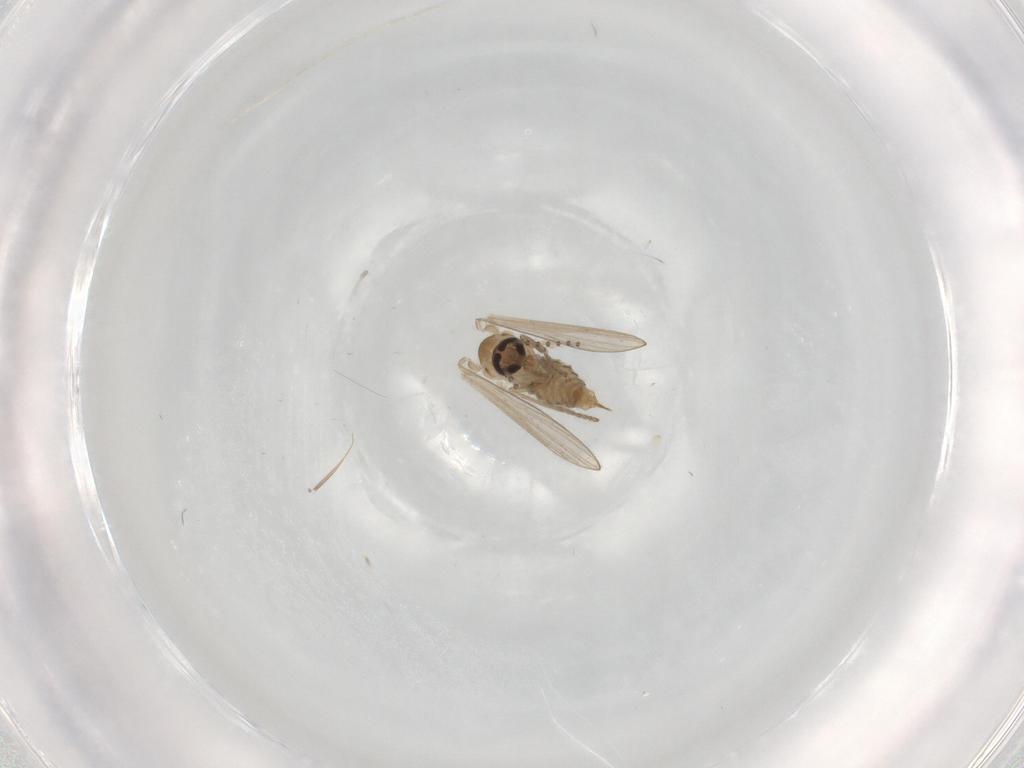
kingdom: Animalia
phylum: Arthropoda
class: Insecta
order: Diptera
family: Psychodidae
